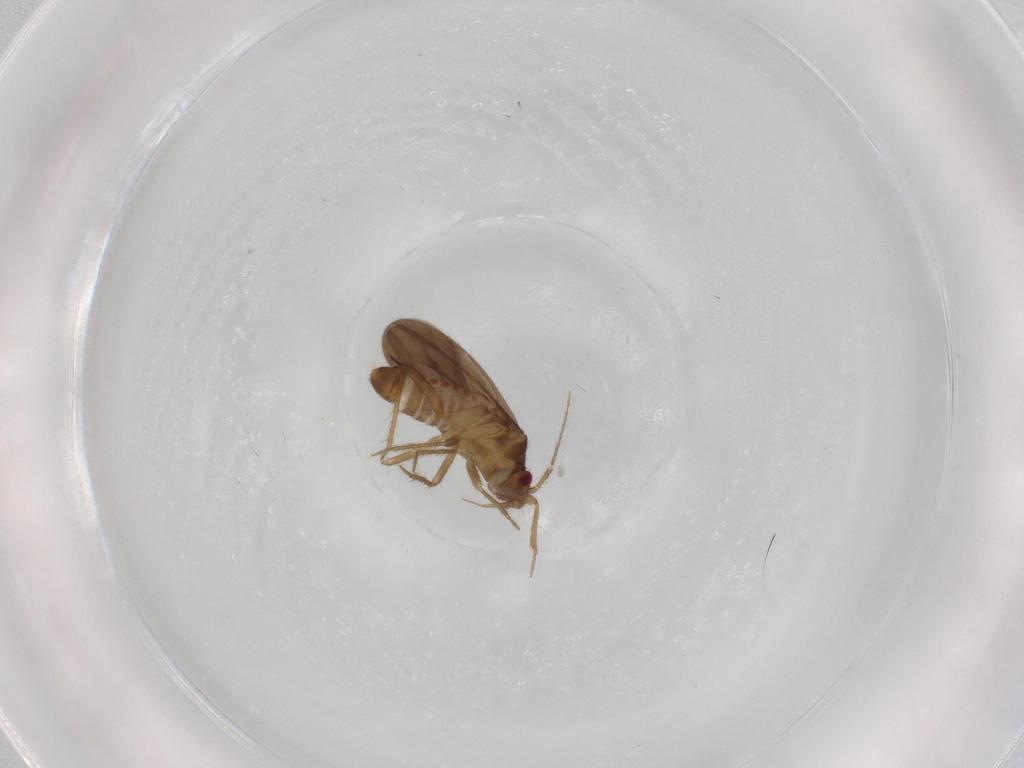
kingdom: Animalia
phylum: Arthropoda
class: Insecta
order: Hemiptera
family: Ceratocombidae
